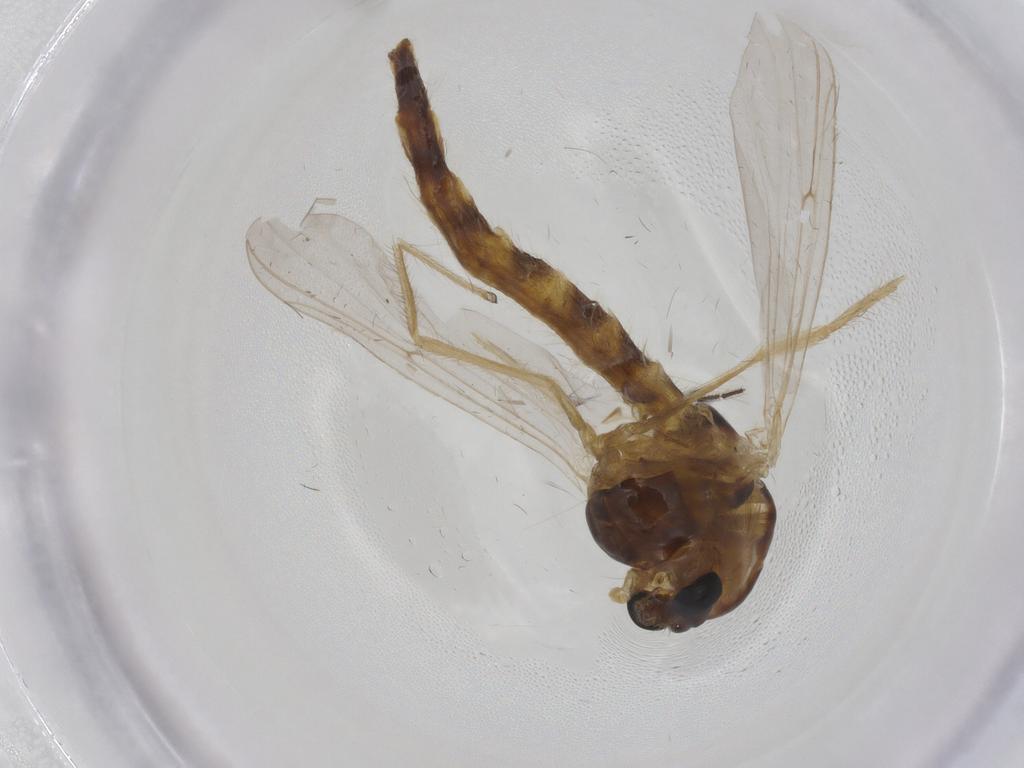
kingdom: Animalia
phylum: Arthropoda
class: Insecta
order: Diptera
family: Chironomidae
